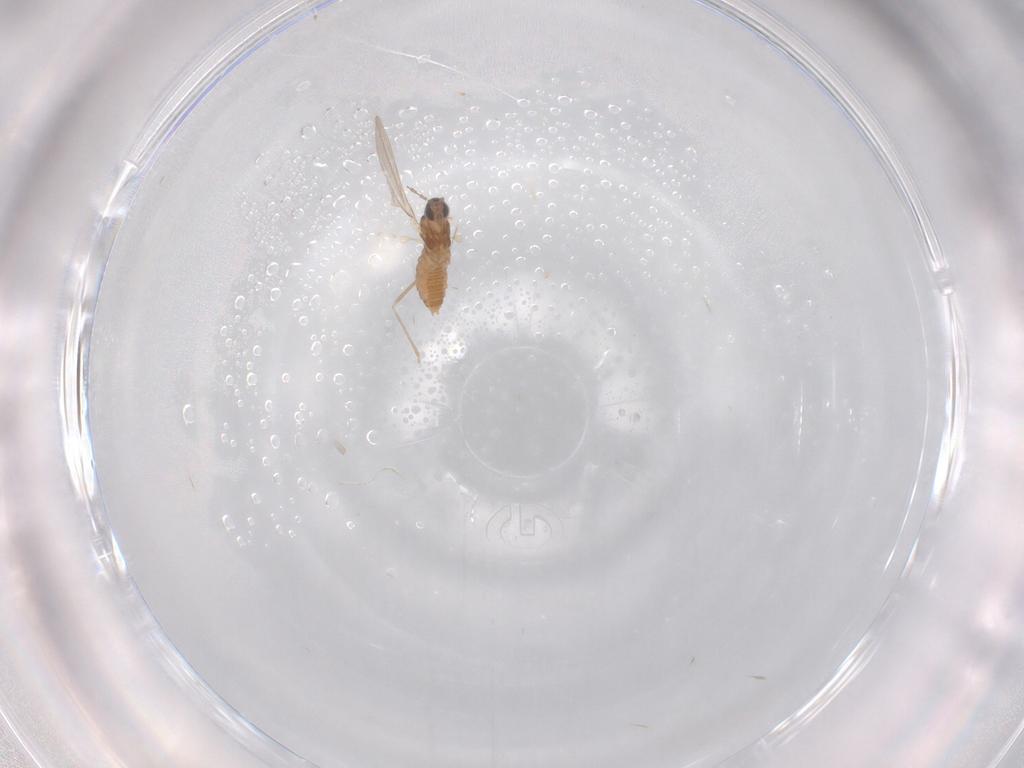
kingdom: Animalia
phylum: Arthropoda
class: Insecta
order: Diptera
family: Cecidomyiidae
